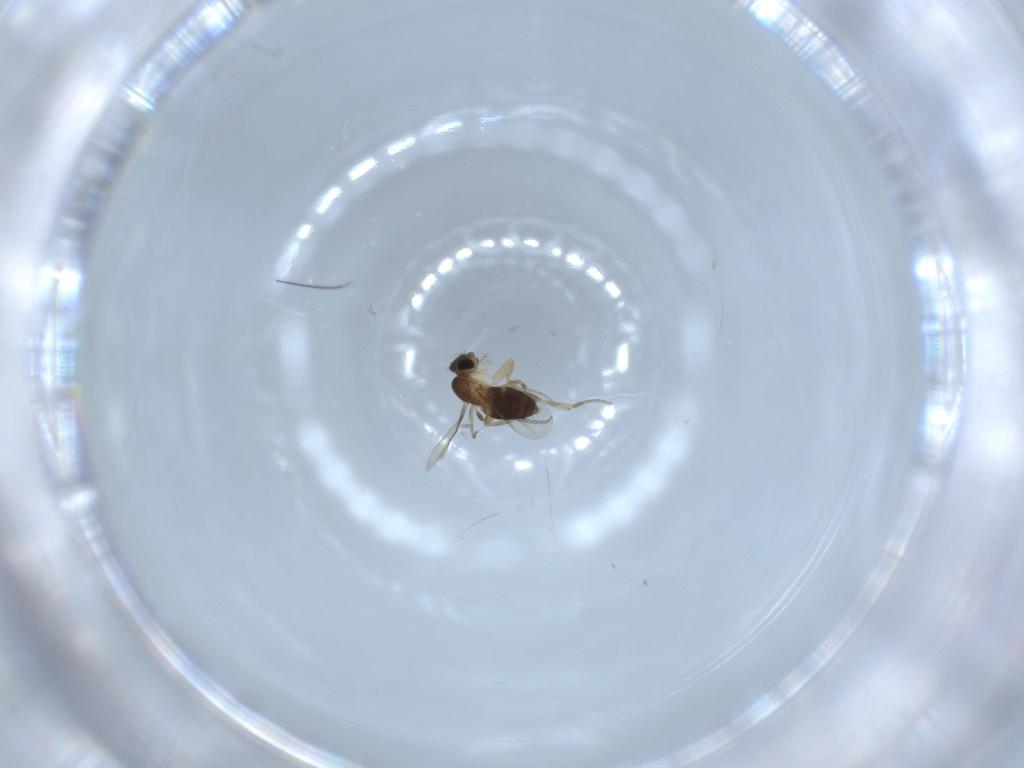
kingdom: Animalia
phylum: Arthropoda
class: Insecta
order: Diptera
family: Chironomidae
